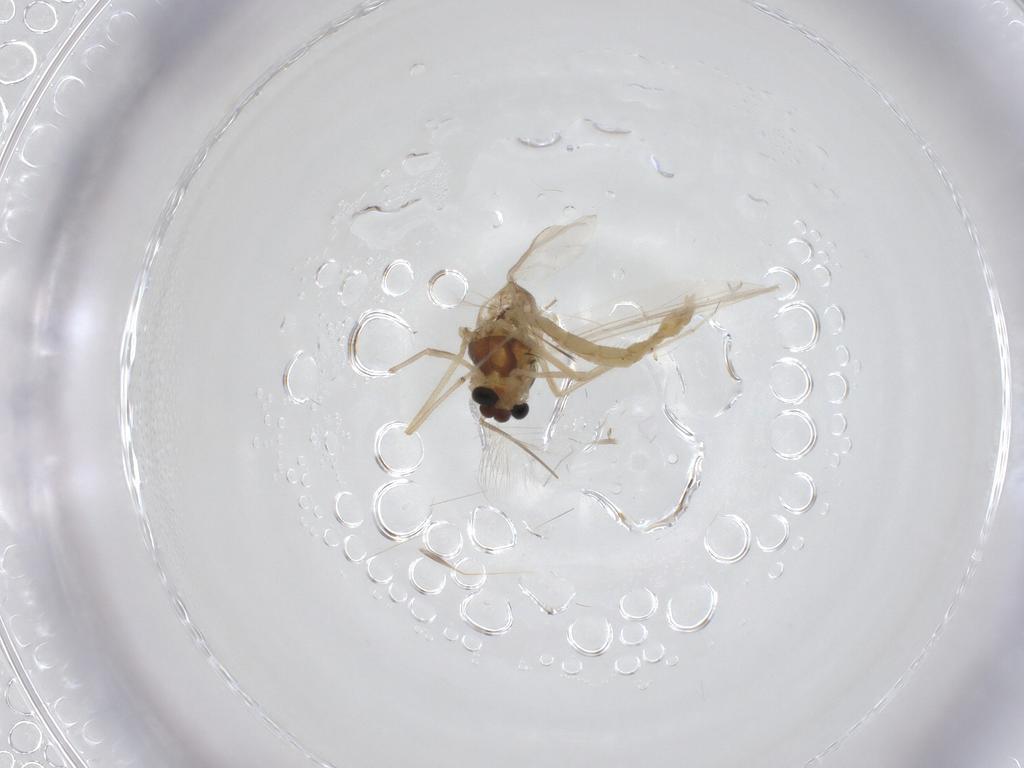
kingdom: Animalia
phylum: Arthropoda
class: Insecta
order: Diptera
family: Chironomidae
